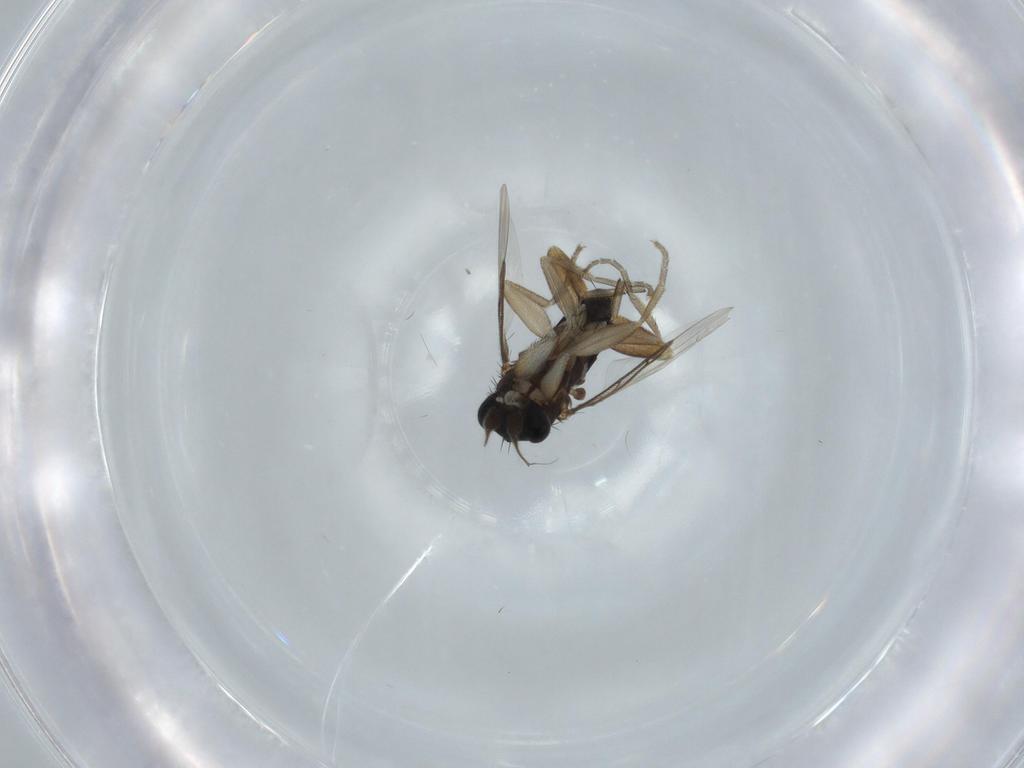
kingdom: Animalia
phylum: Arthropoda
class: Insecta
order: Diptera
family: Phoridae
